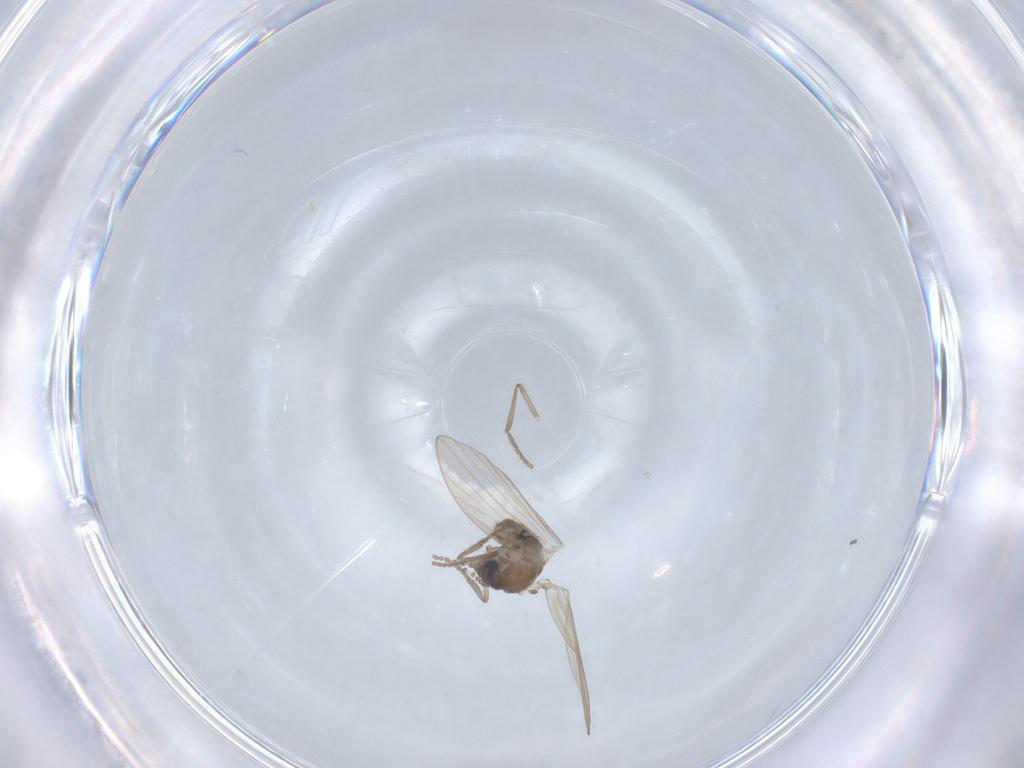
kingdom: Animalia
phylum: Arthropoda
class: Insecta
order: Diptera
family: Psychodidae
